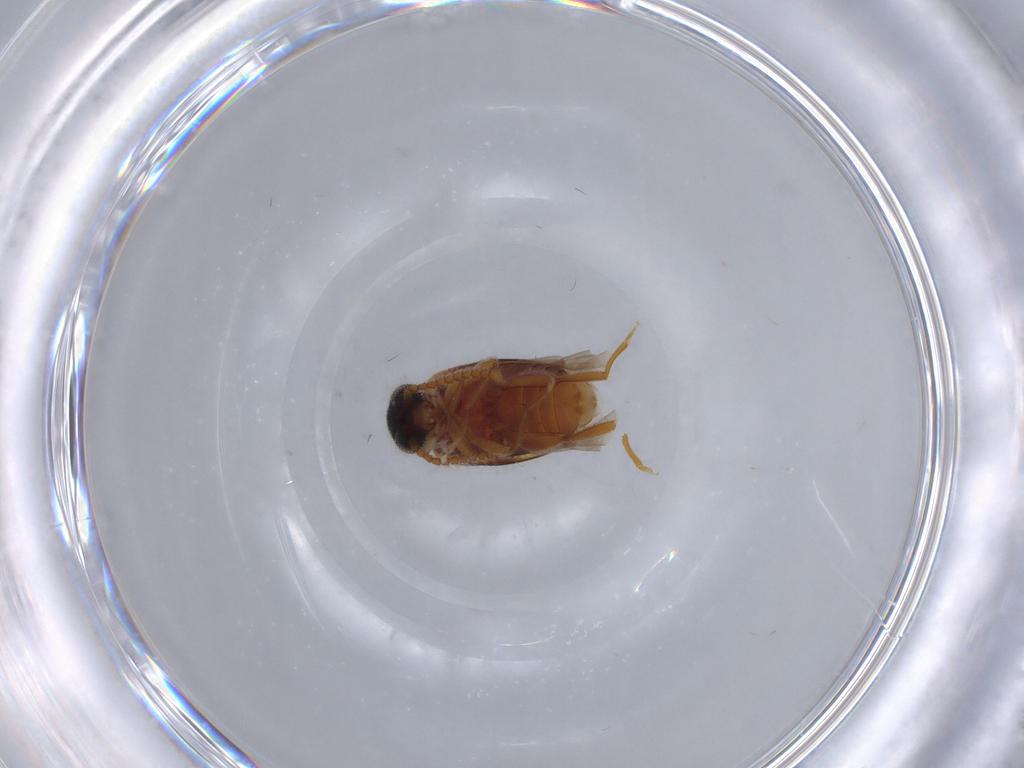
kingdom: Animalia
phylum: Arthropoda
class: Insecta
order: Coleoptera
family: Aderidae
